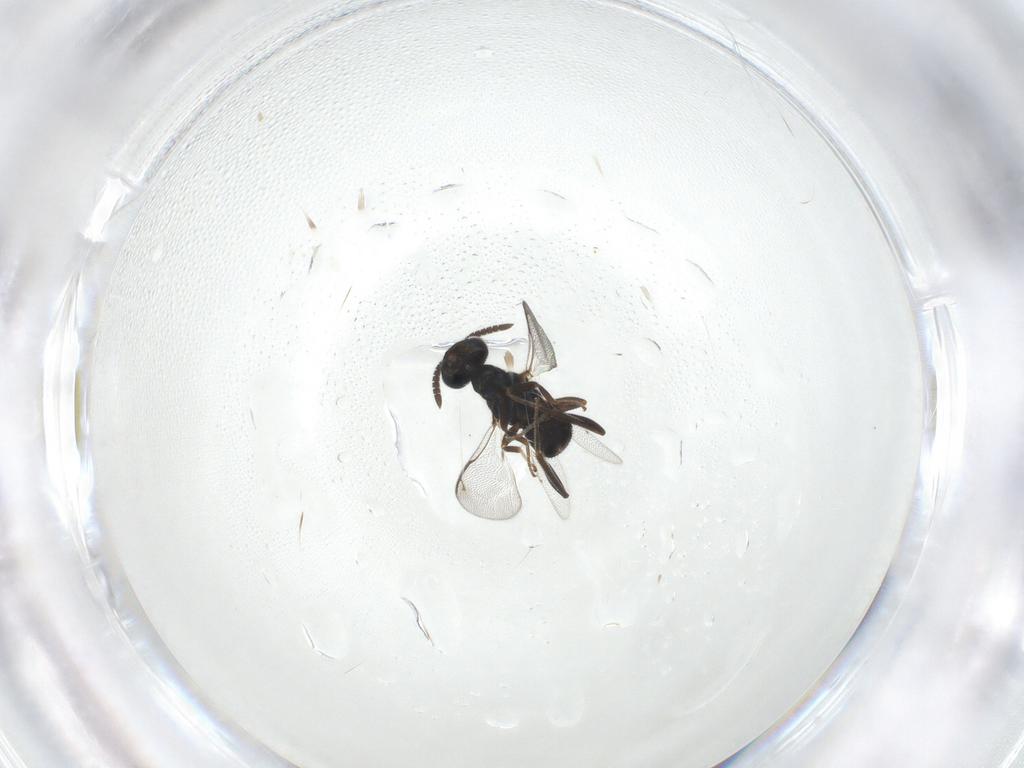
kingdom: Animalia
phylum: Arthropoda
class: Insecta
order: Hymenoptera
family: Cleonyminae
